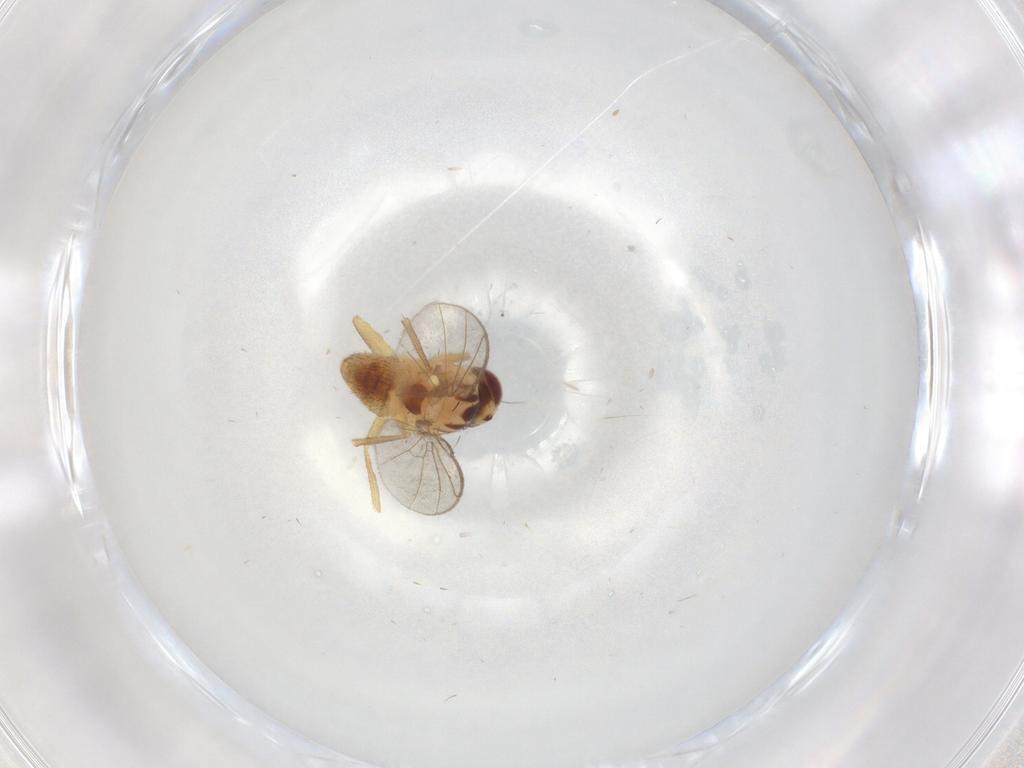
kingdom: Animalia
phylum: Arthropoda
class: Insecta
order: Diptera
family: Agromyzidae
